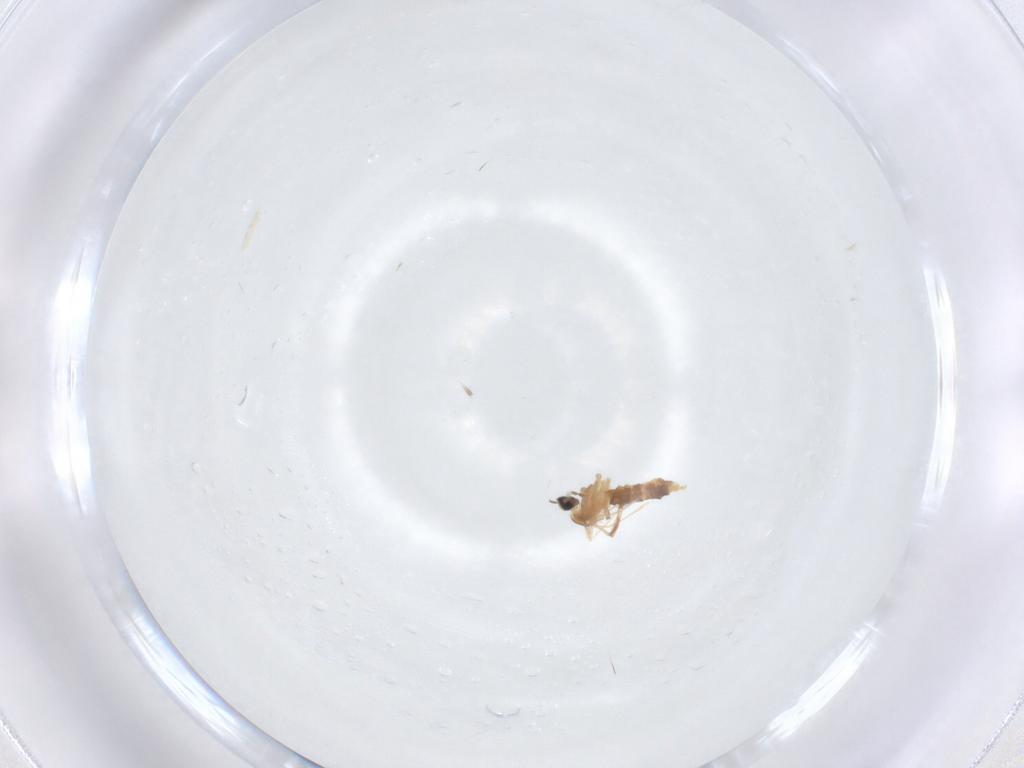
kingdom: Animalia
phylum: Arthropoda
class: Insecta
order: Diptera
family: Cecidomyiidae
